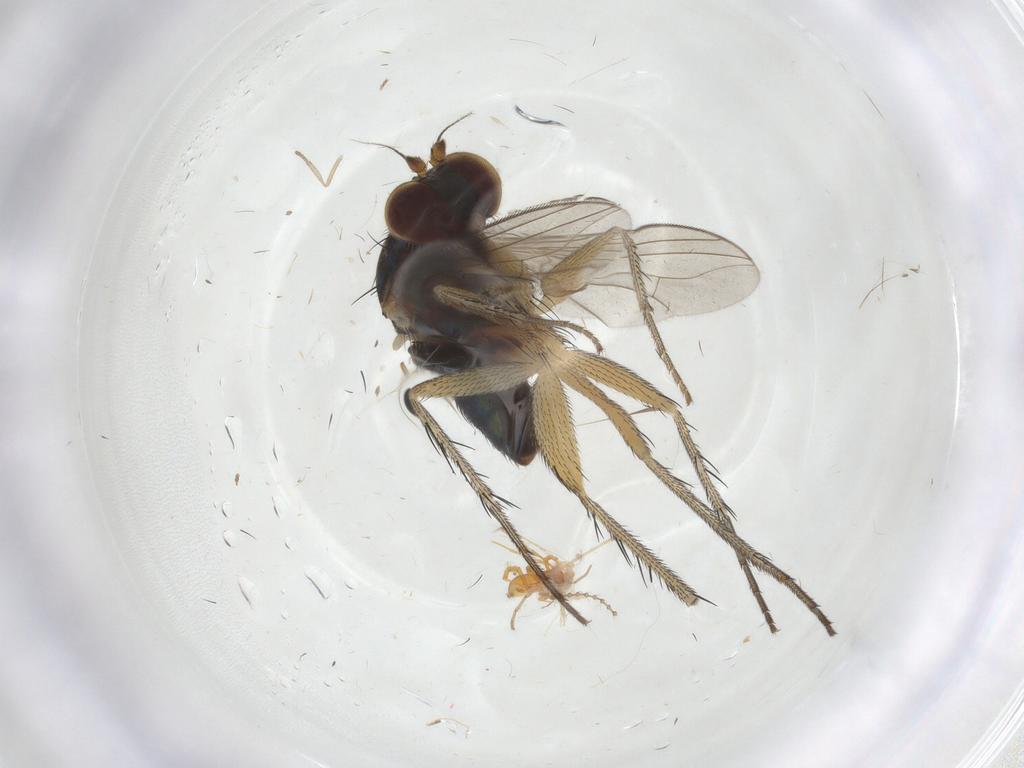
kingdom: Animalia
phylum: Arthropoda
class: Insecta
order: Diptera
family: Dolichopodidae
